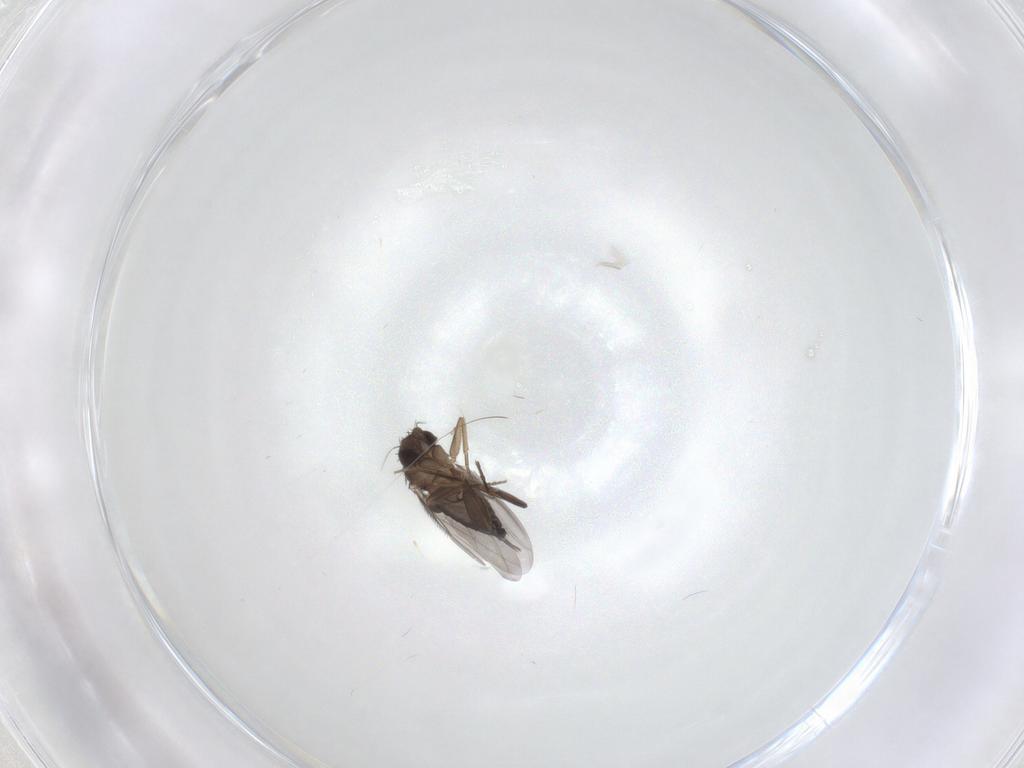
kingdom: Animalia
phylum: Arthropoda
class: Insecta
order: Diptera
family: Phoridae
